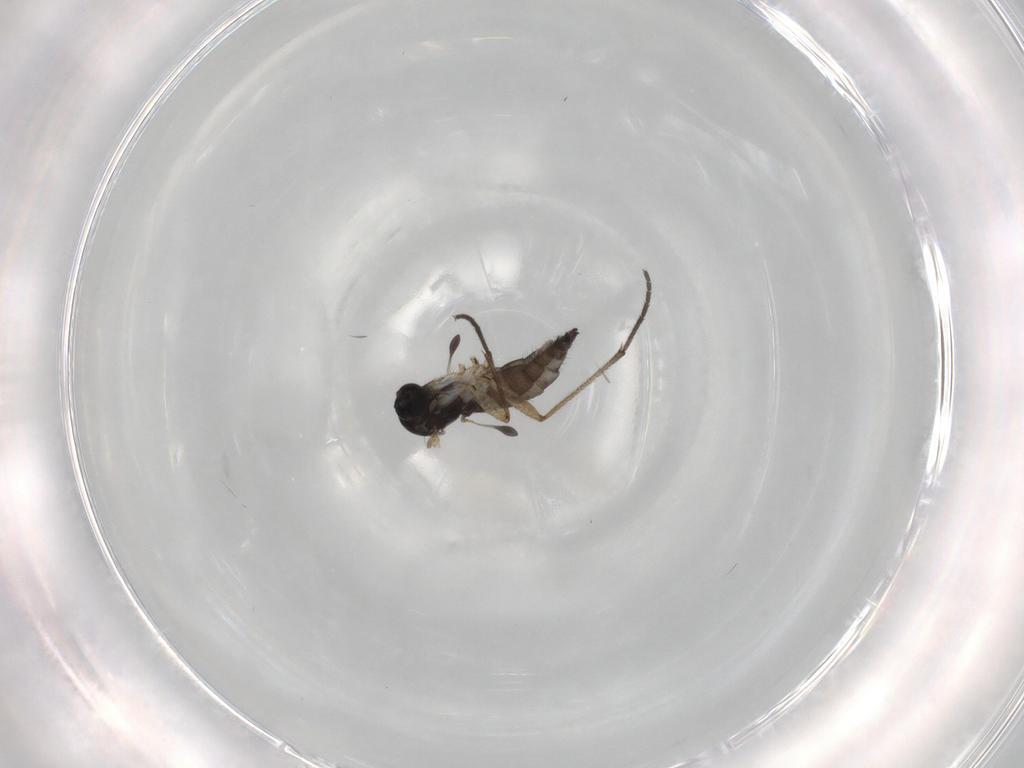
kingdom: Animalia
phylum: Arthropoda
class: Insecta
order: Diptera
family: Sciaridae
